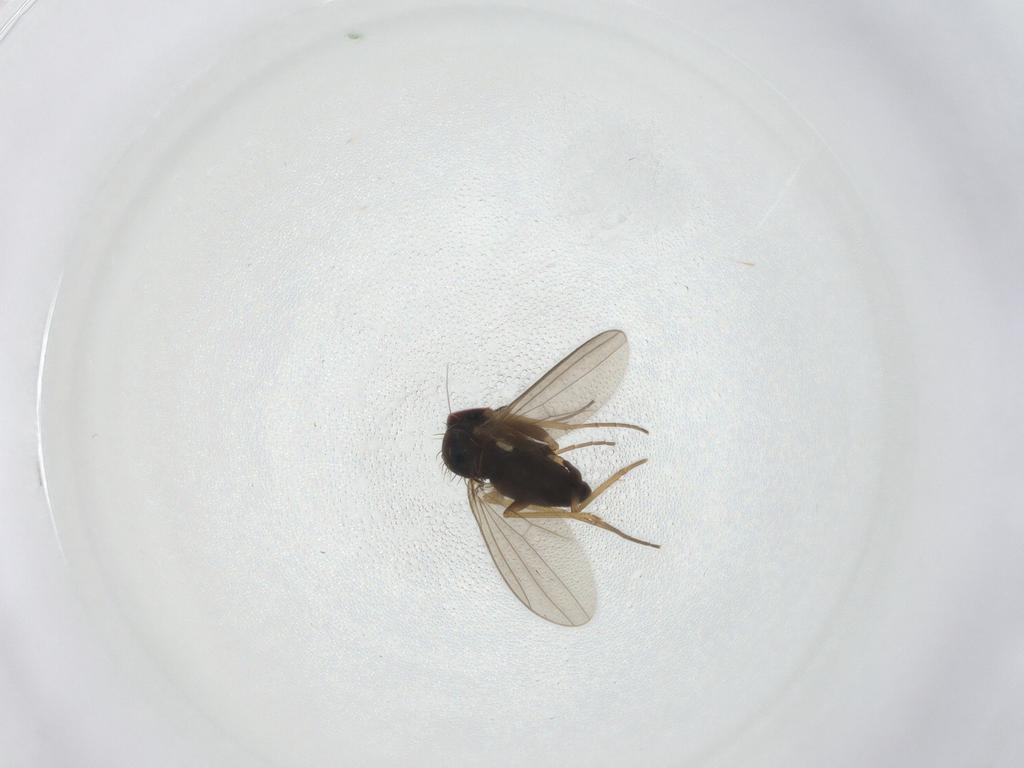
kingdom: Animalia
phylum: Arthropoda
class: Insecta
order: Diptera
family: Dolichopodidae
